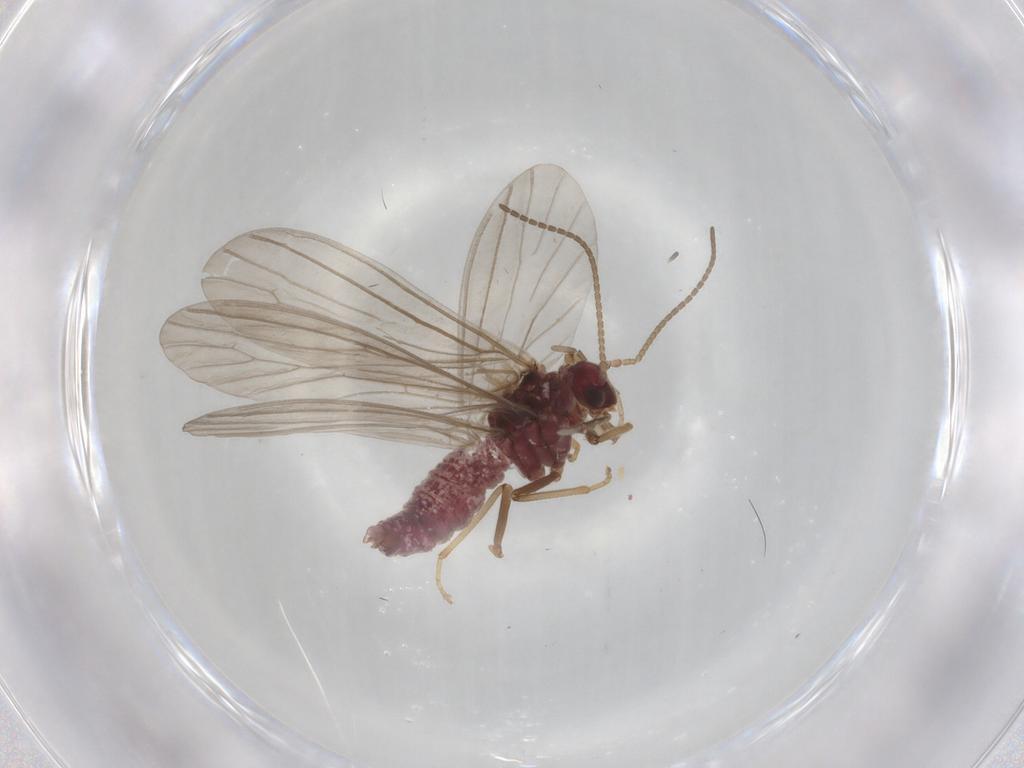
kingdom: Animalia
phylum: Arthropoda
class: Insecta
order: Neuroptera
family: Coniopterygidae
